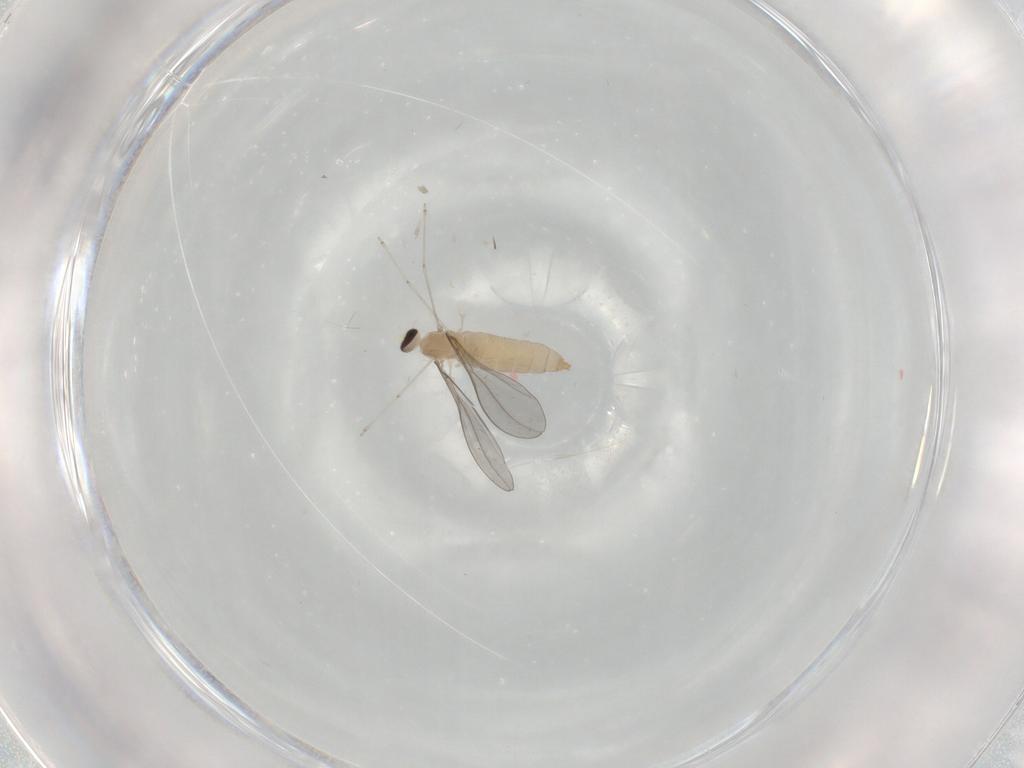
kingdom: Animalia
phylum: Arthropoda
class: Insecta
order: Diptera
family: Cecidomyiidae
